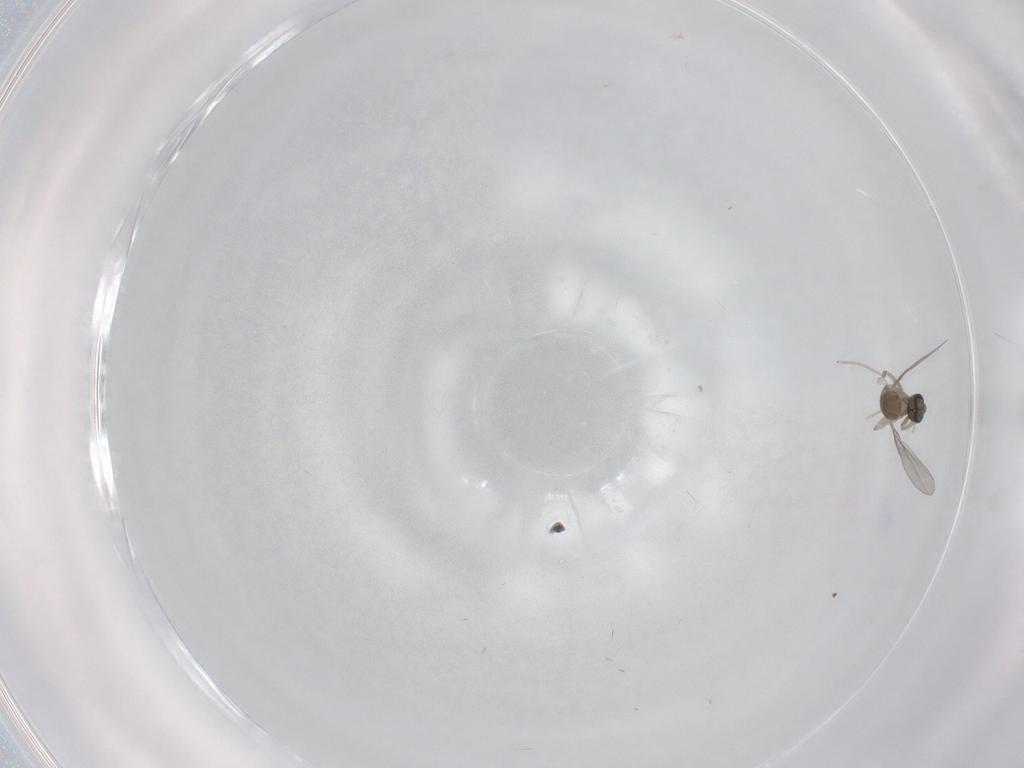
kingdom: Animalia
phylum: Arthropoda
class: Insecta
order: Diptera
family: Cecidomyiidae
